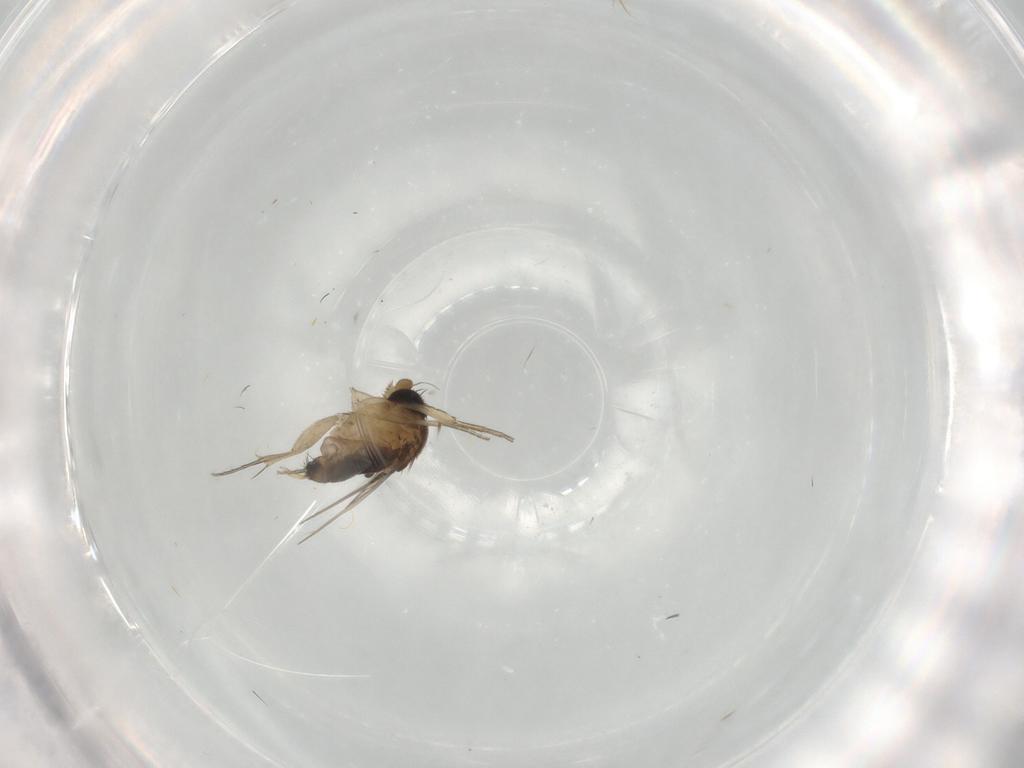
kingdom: Animalia
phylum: Arthropoda
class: Insecta
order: Diptera
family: Phoridae
